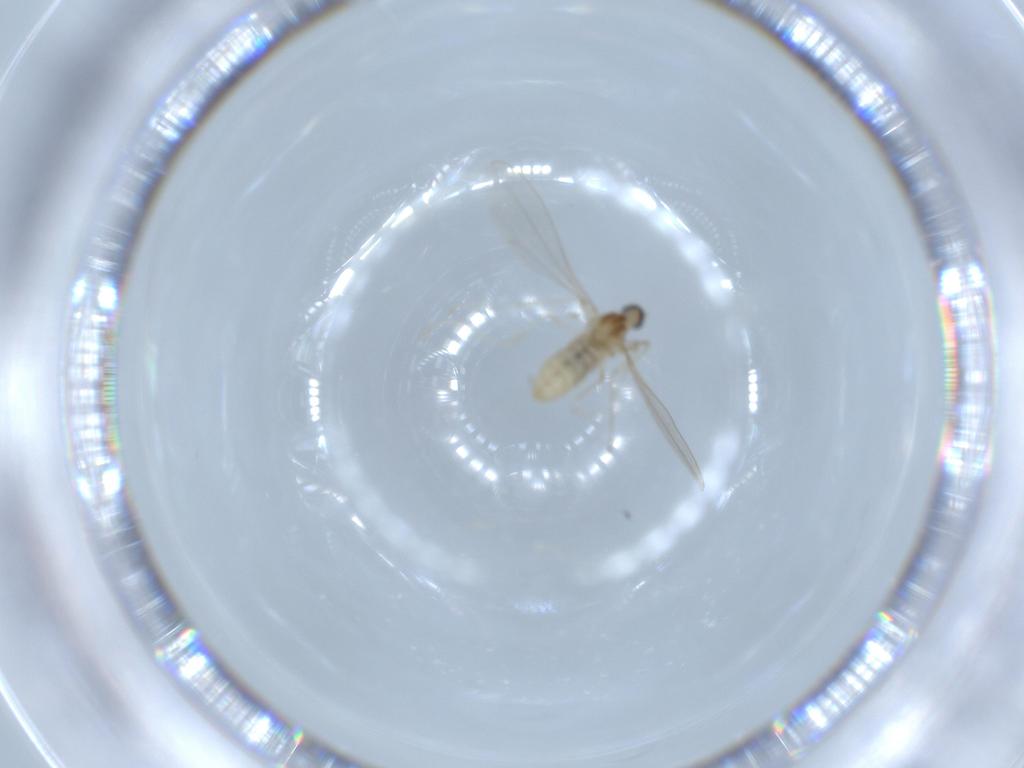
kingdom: Animalia
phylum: Arthropoda
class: Insecta
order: Diptera
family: Cecidomyiidae
